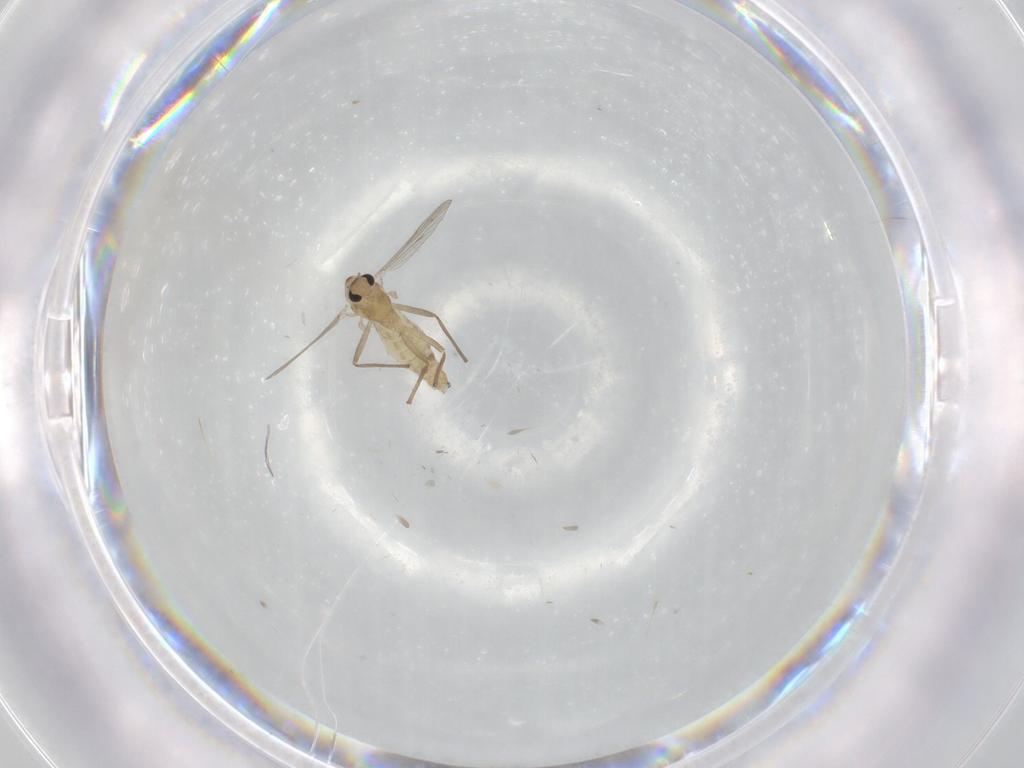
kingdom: Animalia
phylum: Arthropoda
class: Insecta
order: Diptera
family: Chironomidae
